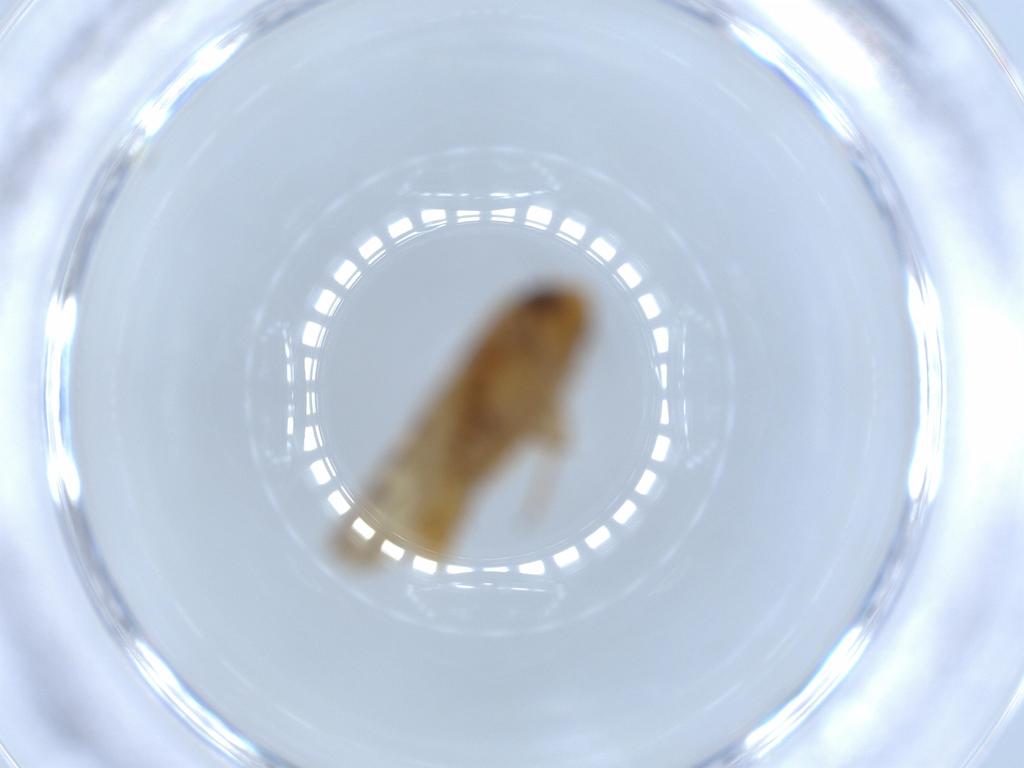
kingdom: Animalia
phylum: Arthropoda
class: Insecta
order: Hemiptera
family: Cicadellidae
